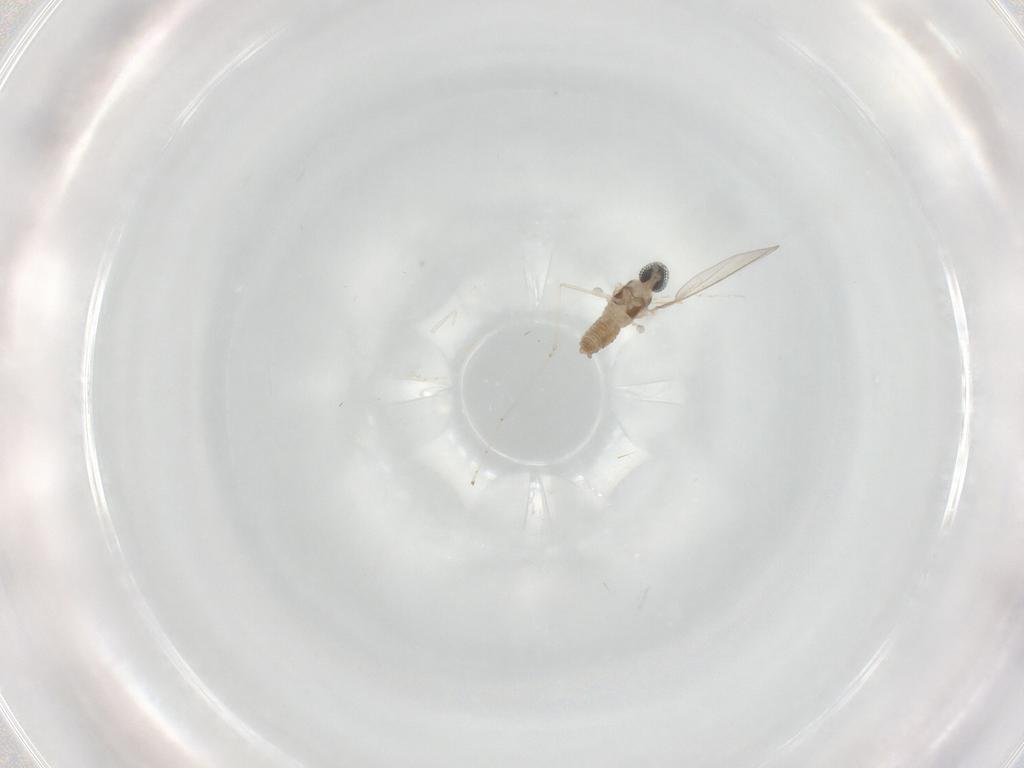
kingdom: Animalia
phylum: Arthropoda
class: Insecta
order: Diptera
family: Cecidomyiidae
